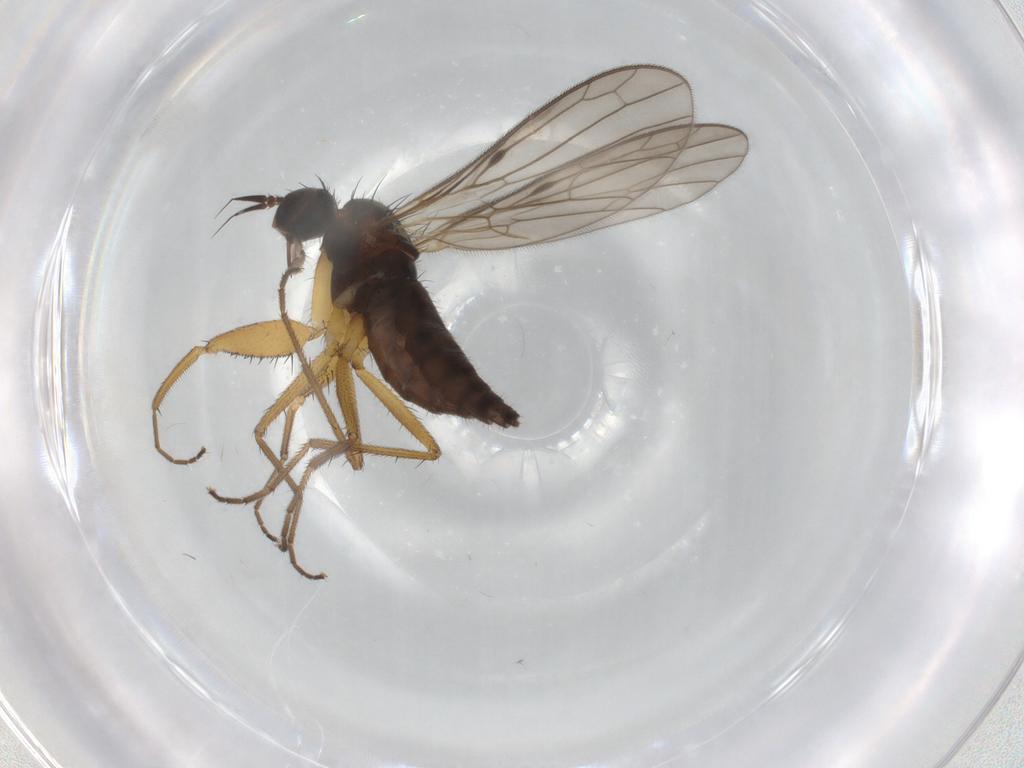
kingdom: Animalia
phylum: Arthropoda
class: Insecta
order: Diptera
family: Empididae
